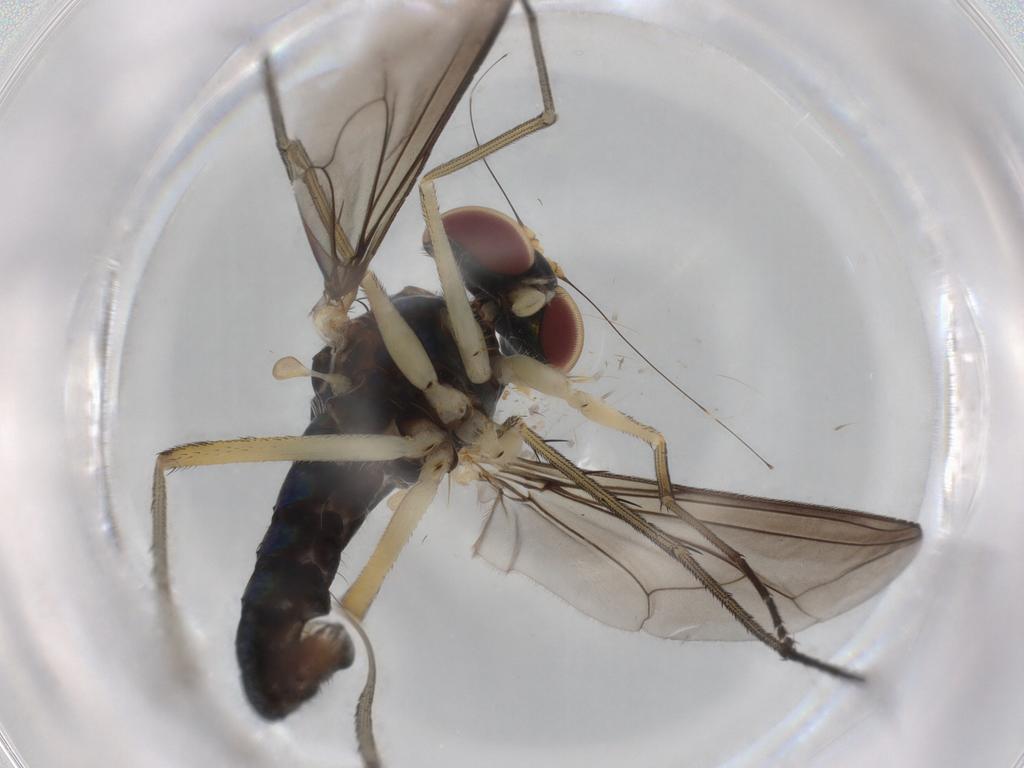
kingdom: Animalia
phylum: Arthropoda
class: Insecta
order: Diptera
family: Dolichopodidae
